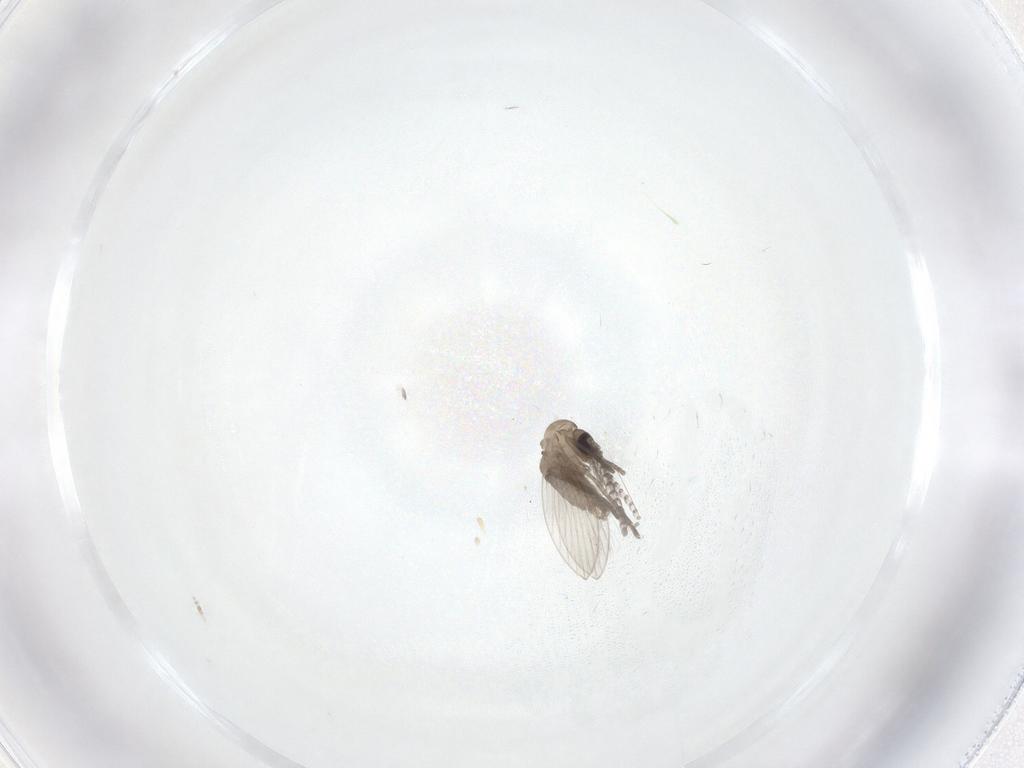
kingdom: Animalia
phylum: Arthropoda
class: Insecta
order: Diptera
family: Psychodidae
